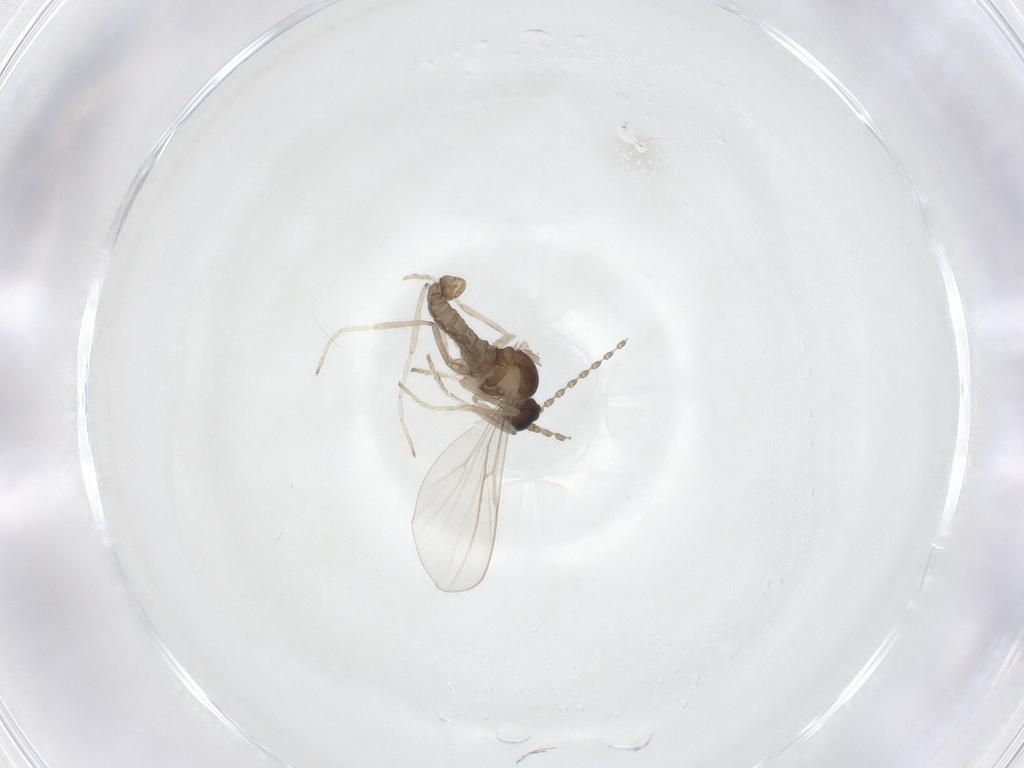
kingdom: Animalia
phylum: Arthropoda
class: Insecta
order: Diptera
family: Cecidomyiidae
